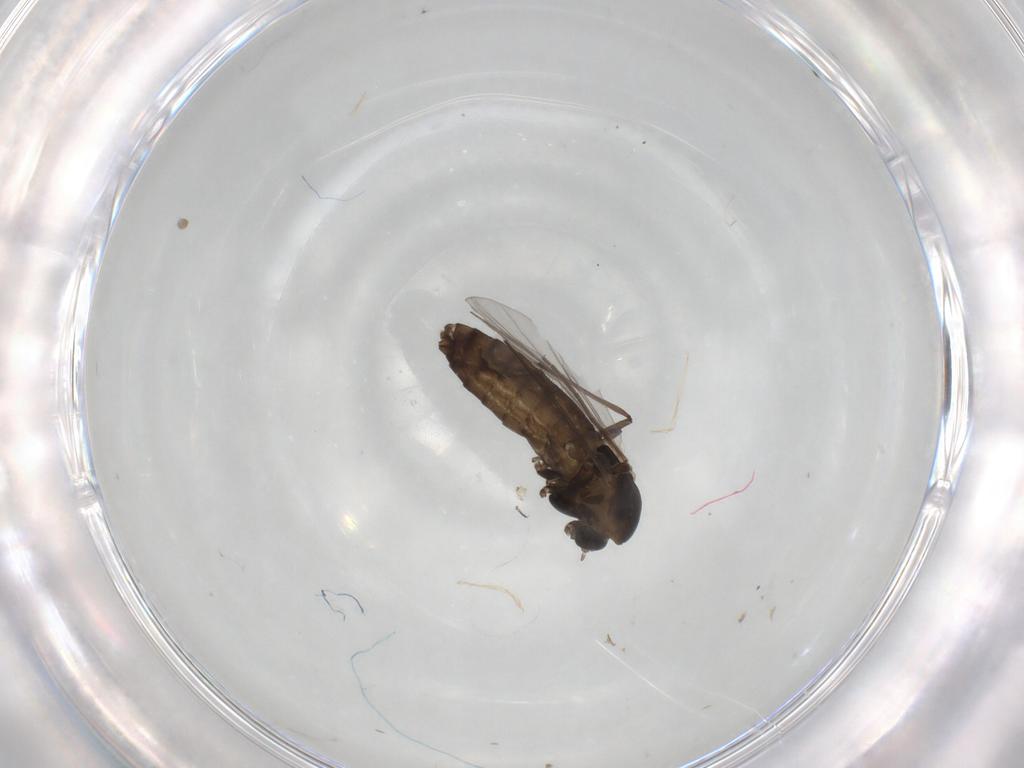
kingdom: Animalia
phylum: Arthropoda
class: Insecta
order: Diptera
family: Chironomidae
